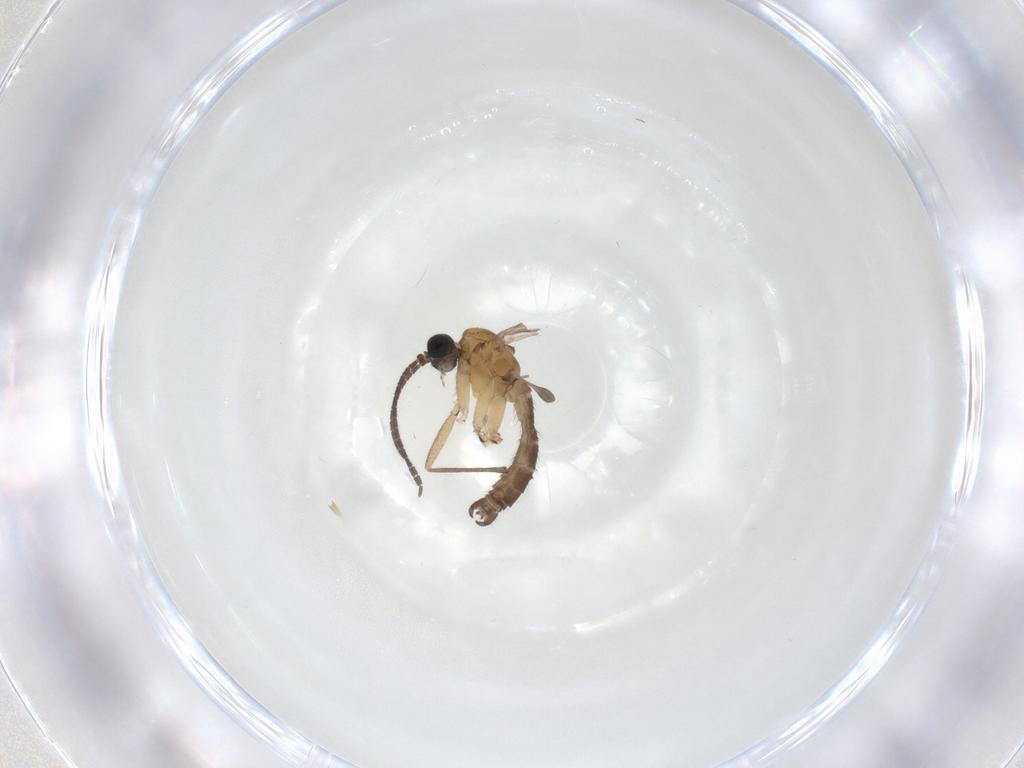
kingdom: Animalia
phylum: Arthropoda
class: Insecta
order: Diptera
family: Sciaridae
